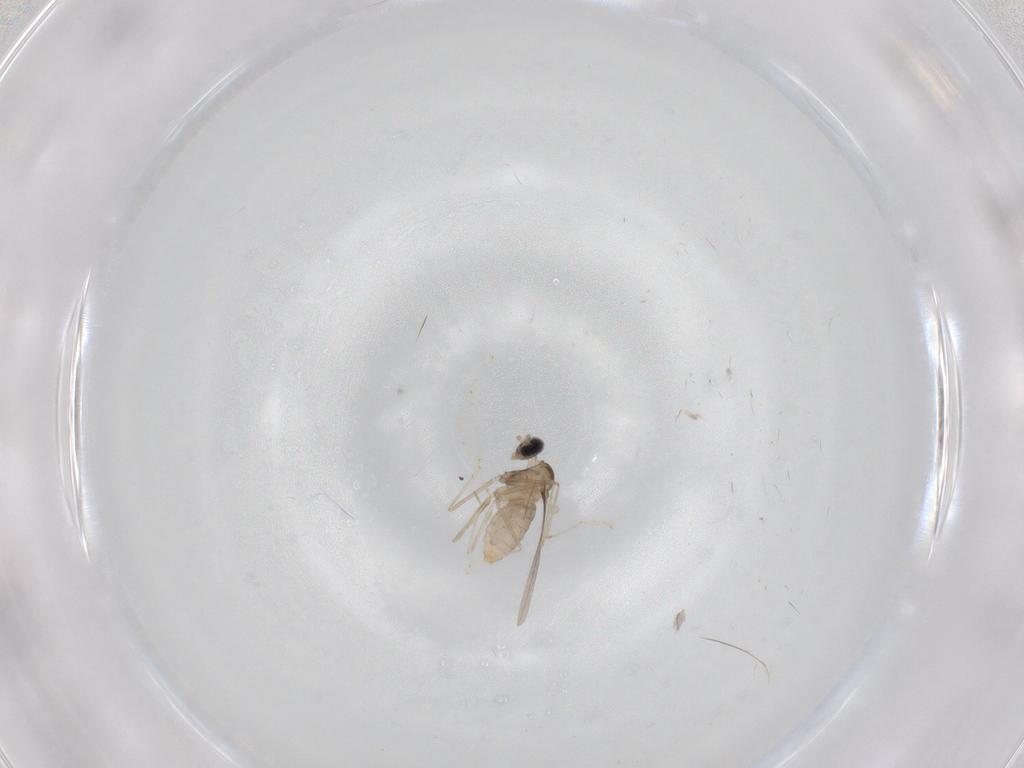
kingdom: Animalia
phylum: Arthropoda
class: Insecta
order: Diptera
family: Cecidomyiidae
